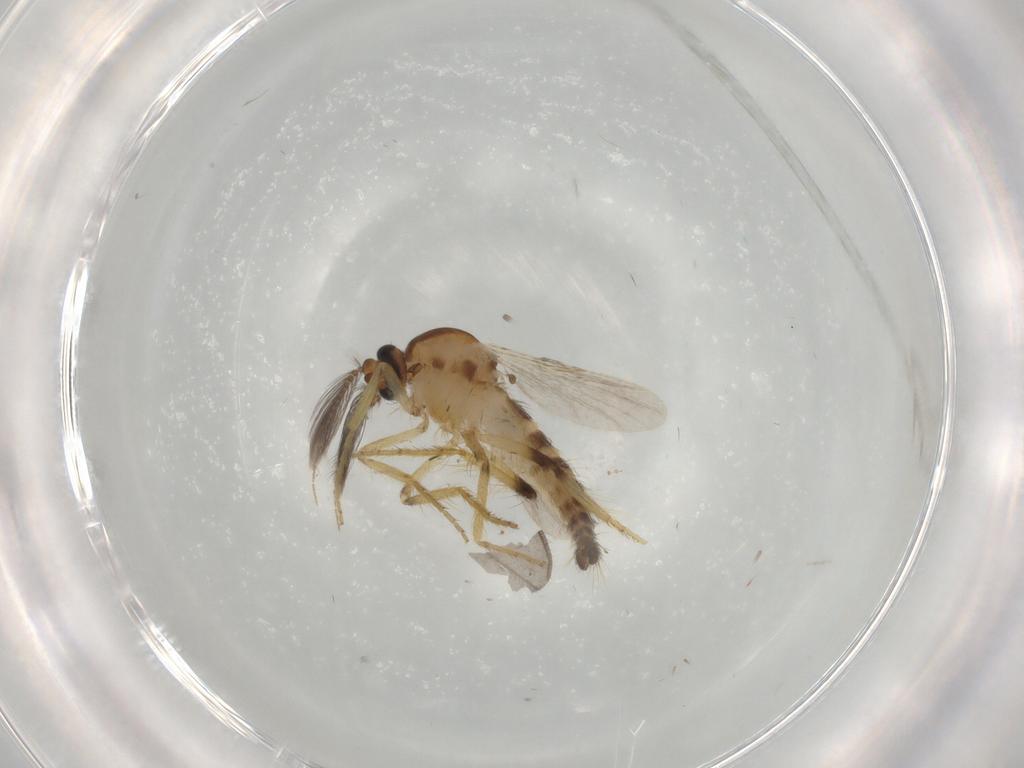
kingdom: Animalia
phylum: Arthropoda
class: Insecta
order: Diptera
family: Ceratopogonidae
